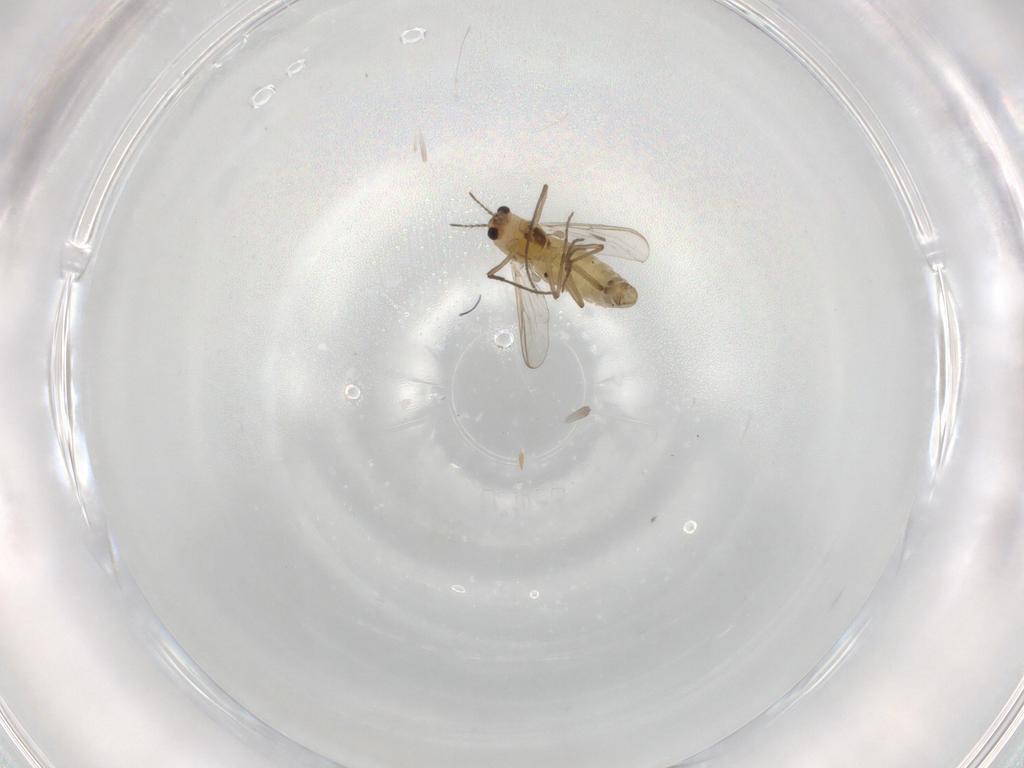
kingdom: Animalia
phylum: Arthropoda
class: Insecta
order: Diptera
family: Chironomidae
